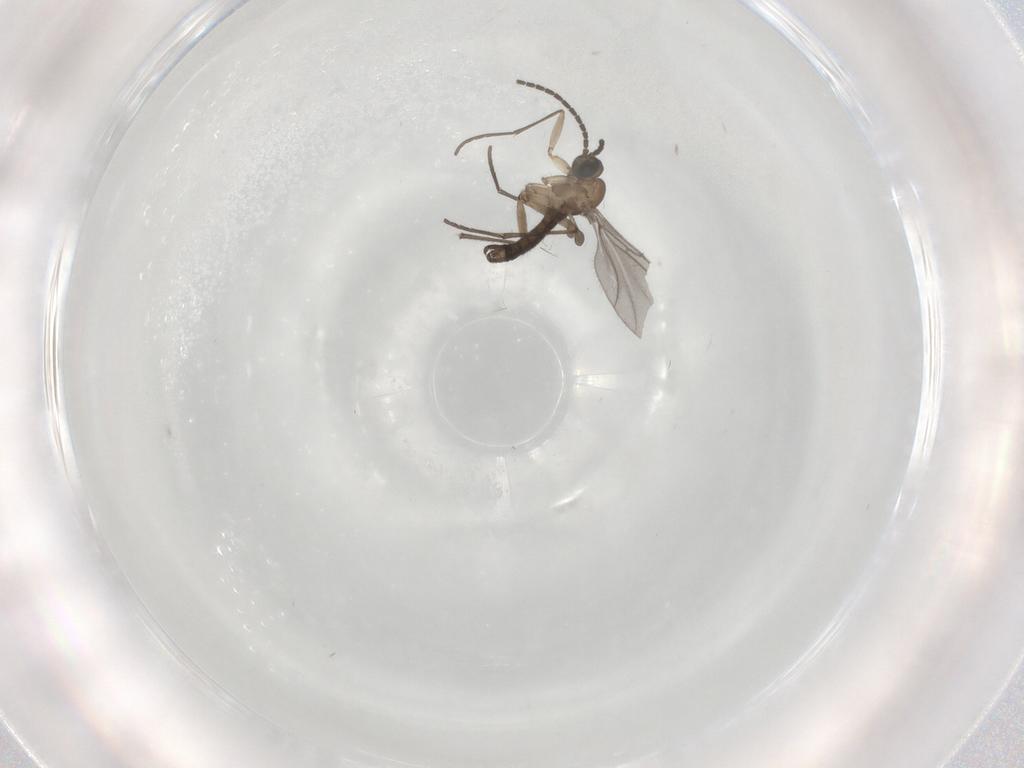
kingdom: Animalia
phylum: Arthropoda
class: Insecta
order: Diptera
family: Sciaridae
